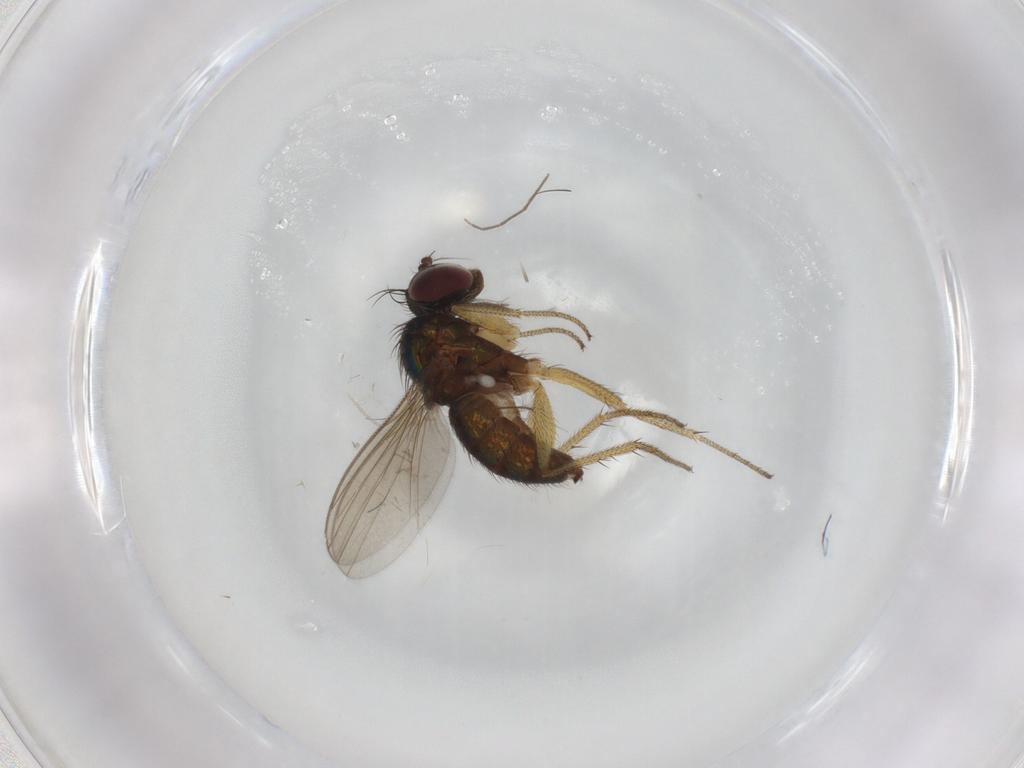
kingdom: Animalia
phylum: Arthropoda
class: Insecta
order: Diptera
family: Ceratopogonidae
